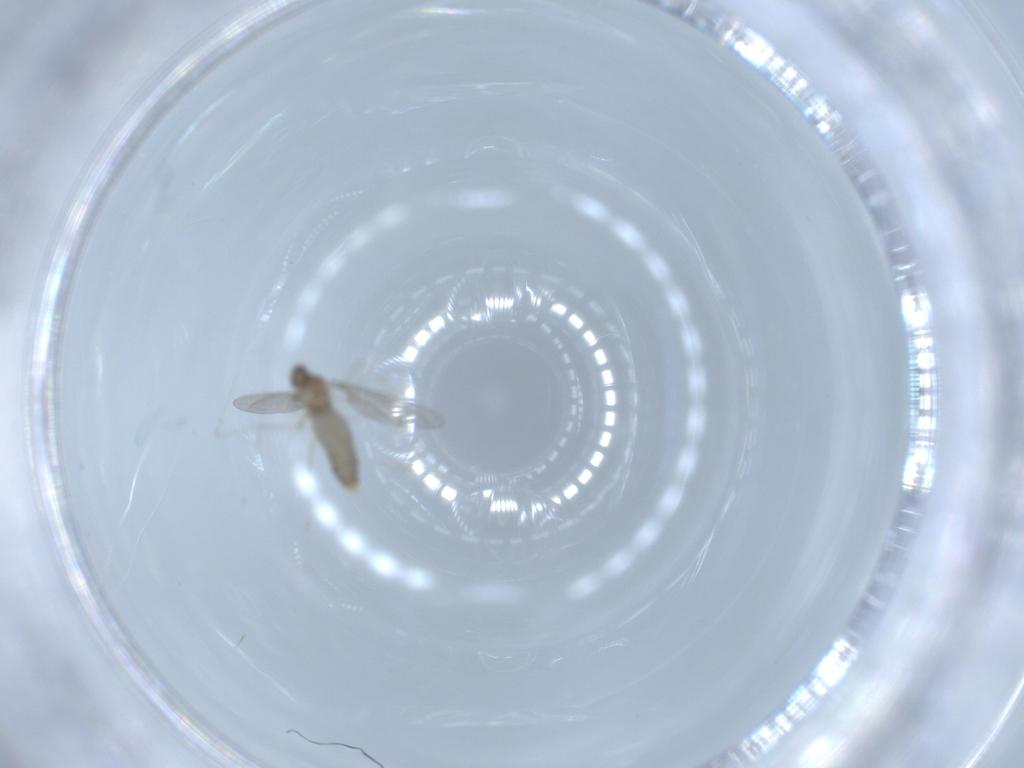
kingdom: Animalia
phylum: Arthropoda
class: Insecta
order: Diptera
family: Cecidomyiidae
